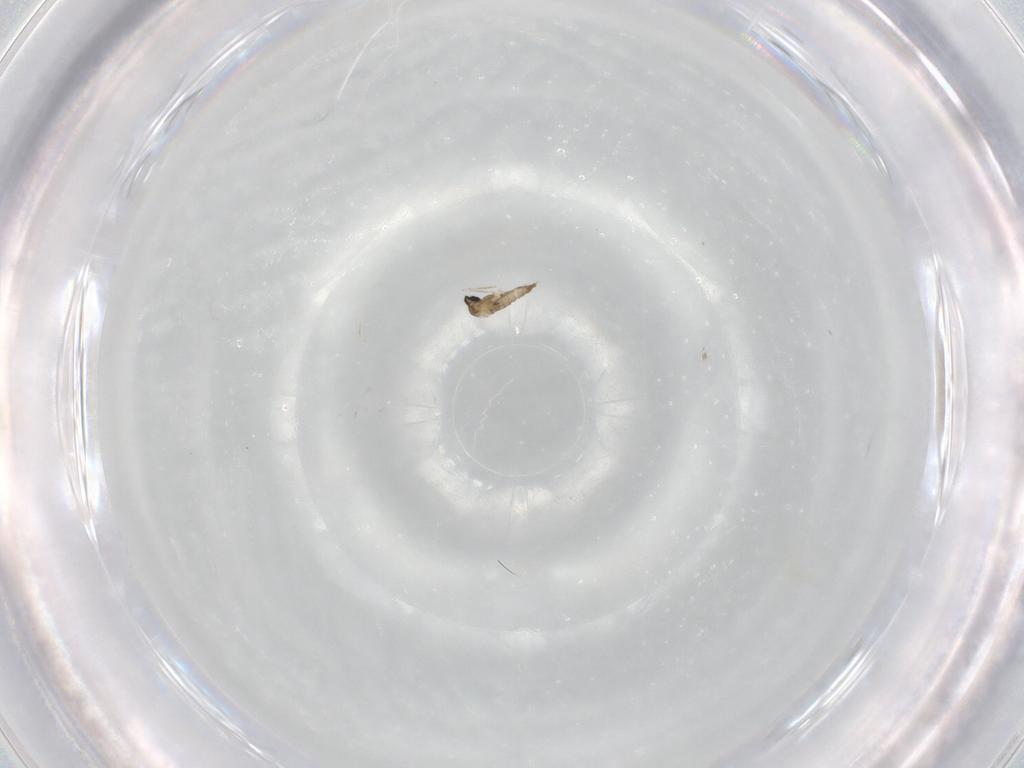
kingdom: Animalia
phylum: Arthropoda
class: Insecta
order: Diptera
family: Cecidomyiidae
